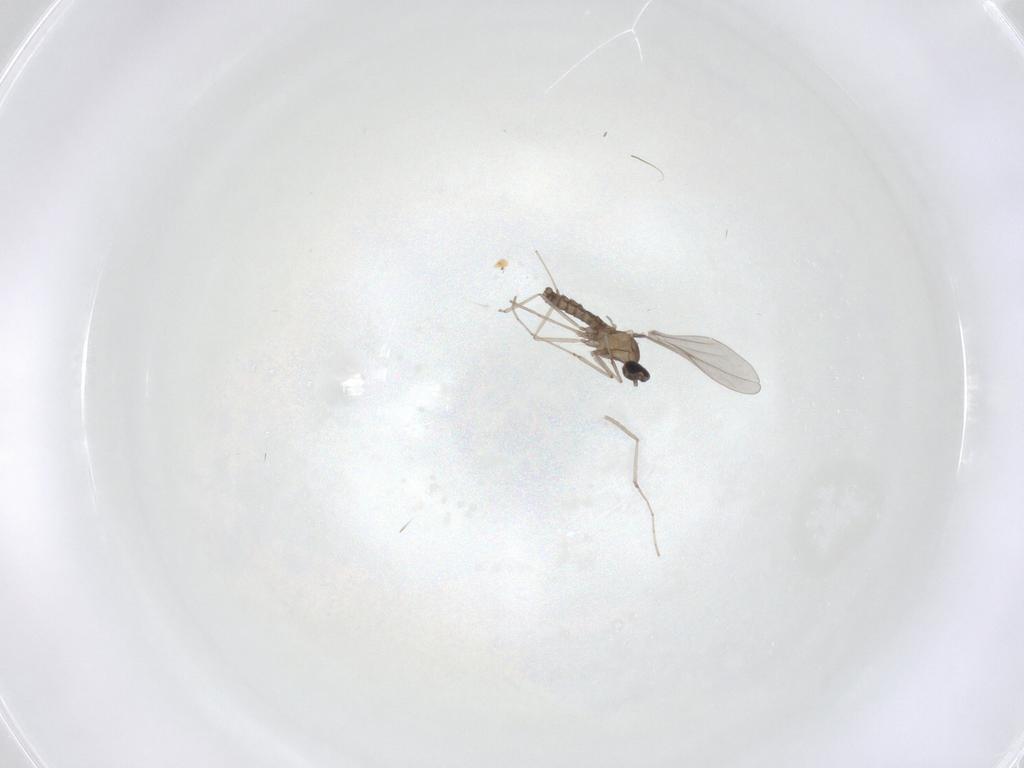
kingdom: Animalia
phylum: Arthropoda
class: Insecta
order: Diptera
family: Cecidomyiidae
